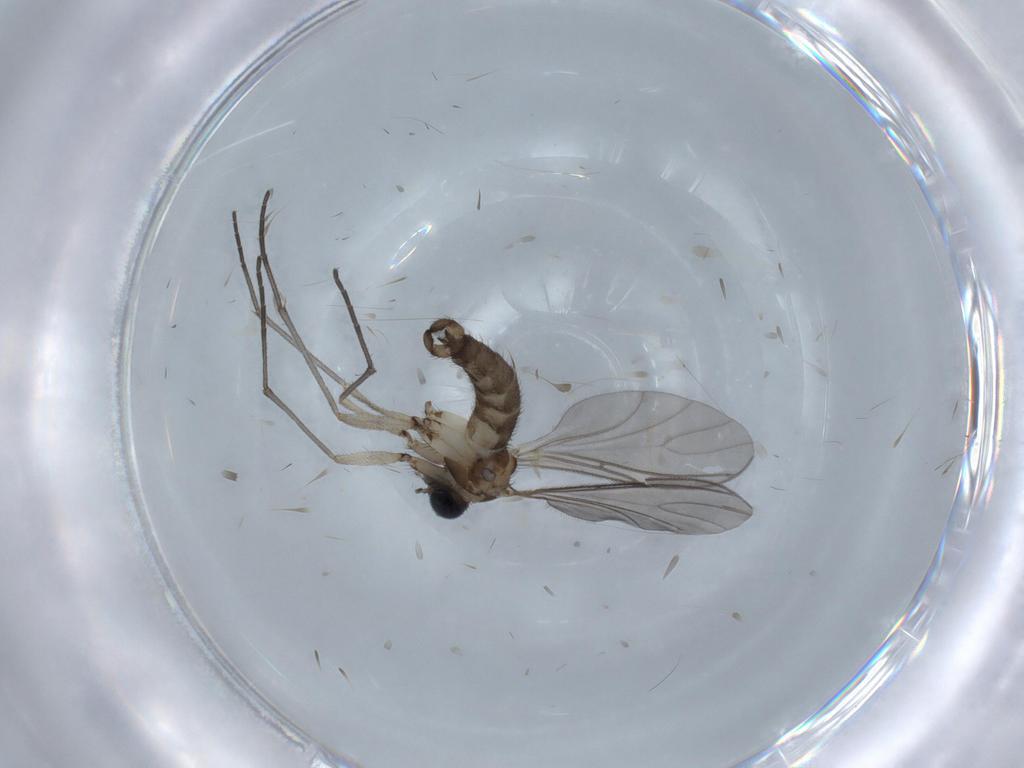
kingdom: Animalia
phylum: Arthropoda
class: Insecta
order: Diptera
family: Sciaridae
